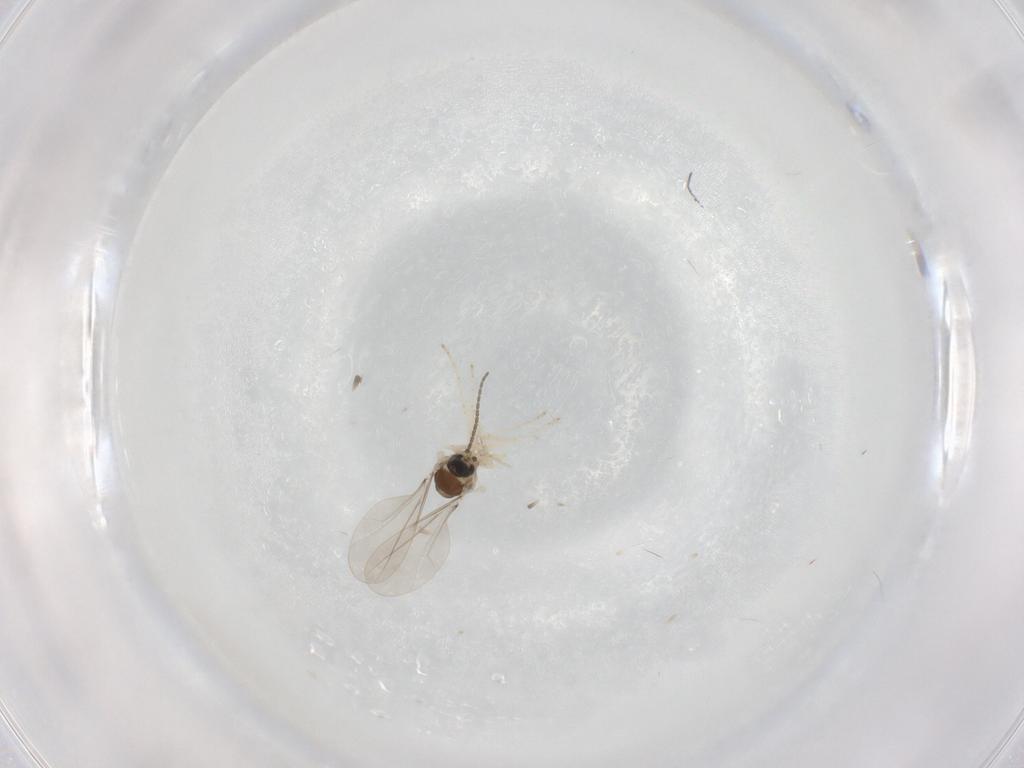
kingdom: Animalia
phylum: Arthropoda
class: Insecta
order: Diptera
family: Cecidomyiidae
